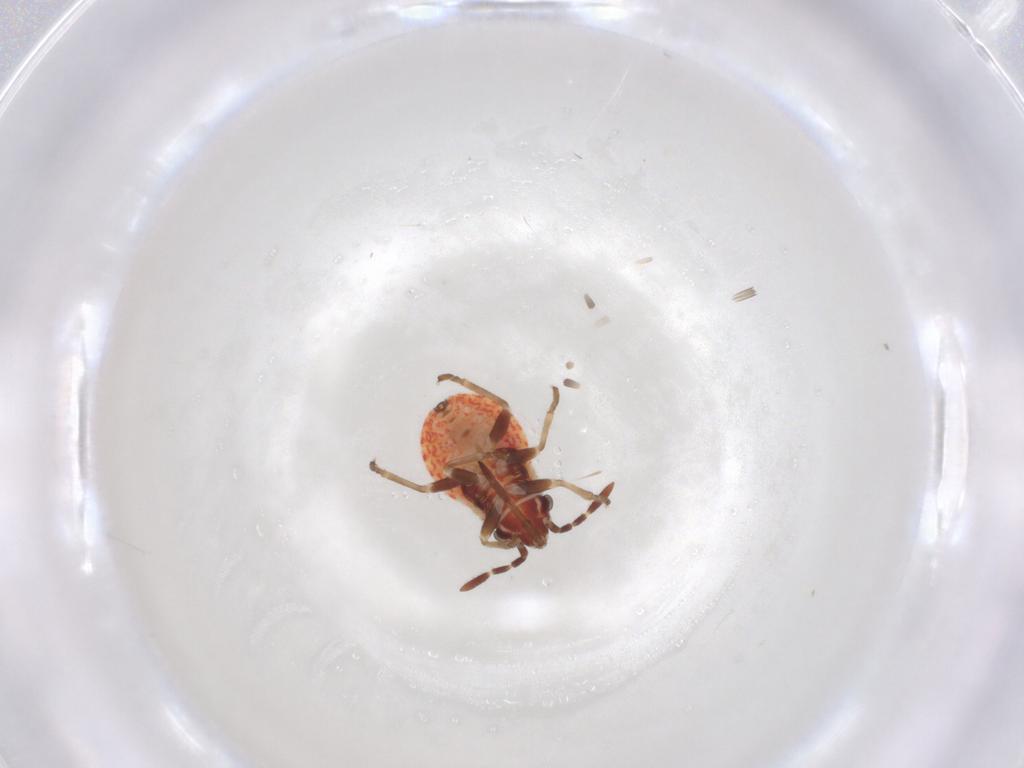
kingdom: Animalia
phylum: Arthropoda
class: Insecta
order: Hemiptera
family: Lygaeidae
